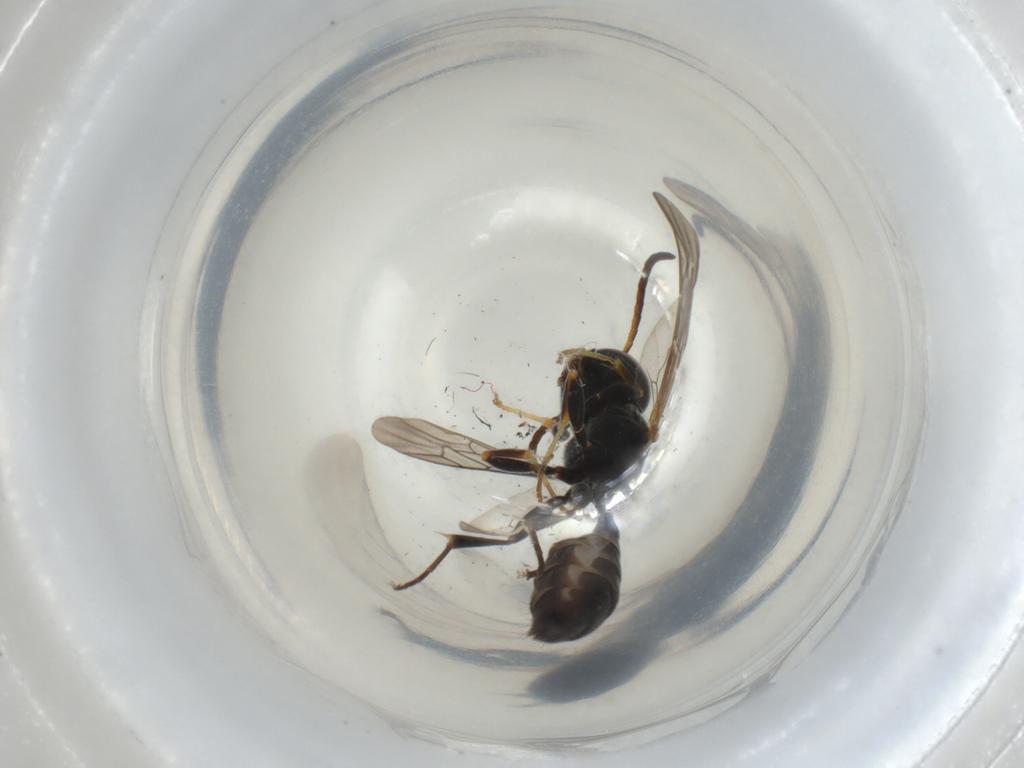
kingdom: Animalia
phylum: Arthropoda
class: Insecta
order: Hymenoptera
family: Crabronidae
